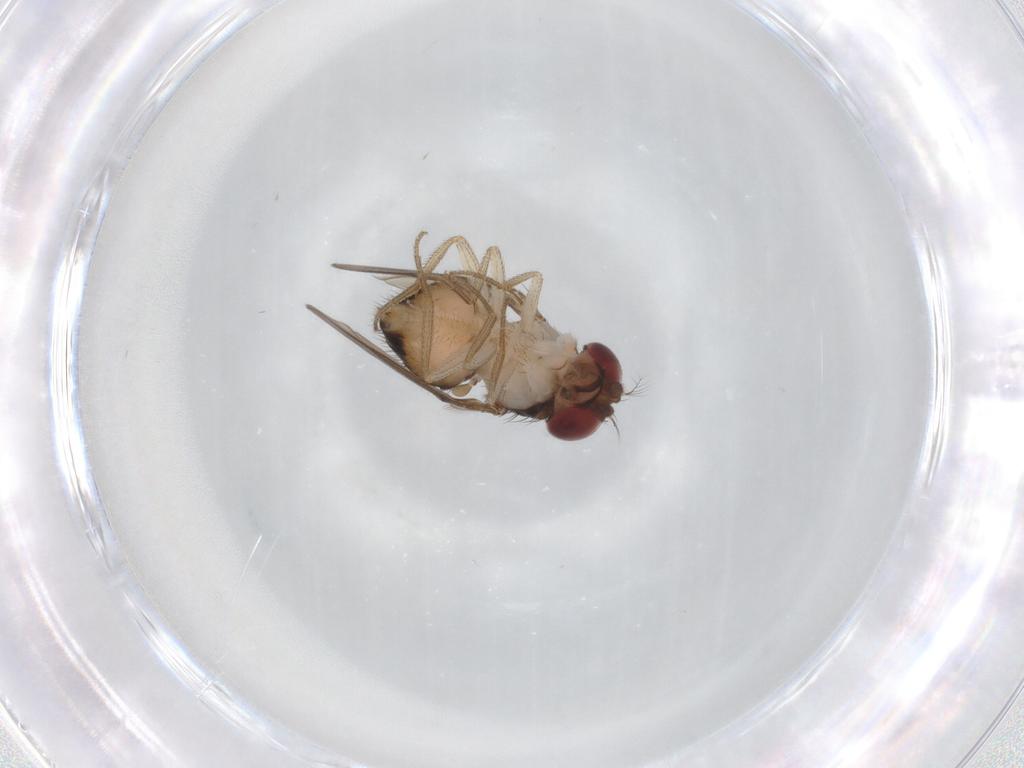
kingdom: Animalia
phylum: Arthropoda
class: Insecta
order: Diptera
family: Drosophilidae
